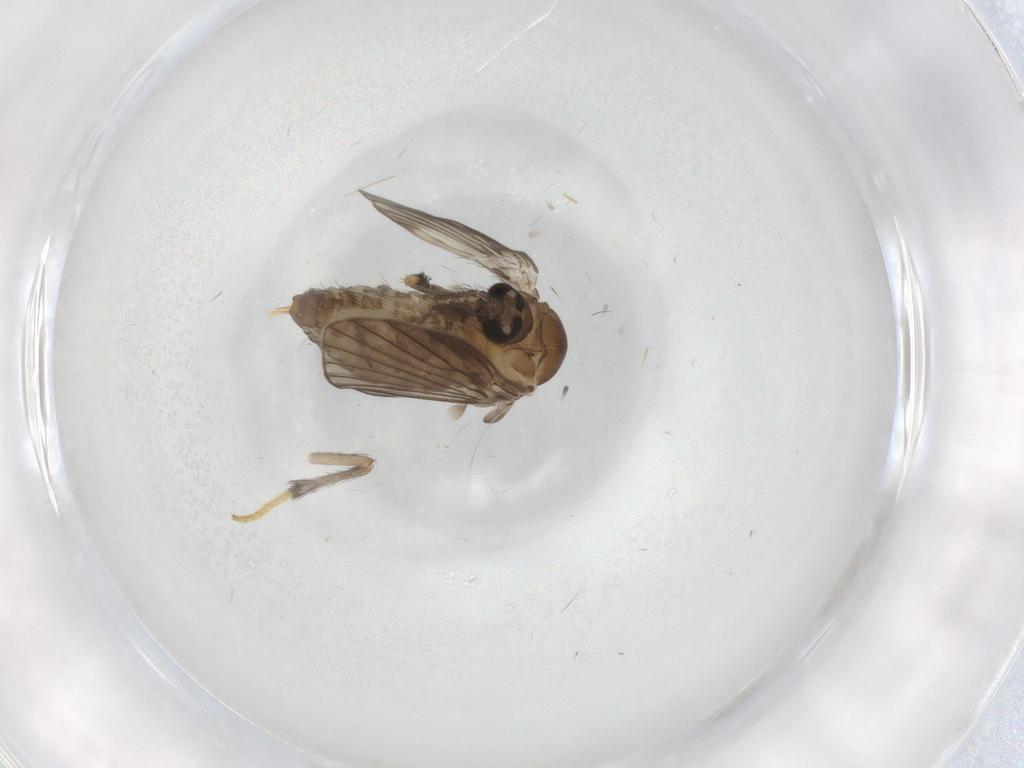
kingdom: Animalia
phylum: Arthropoda
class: Insecta
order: Diptera
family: Psychodidae
